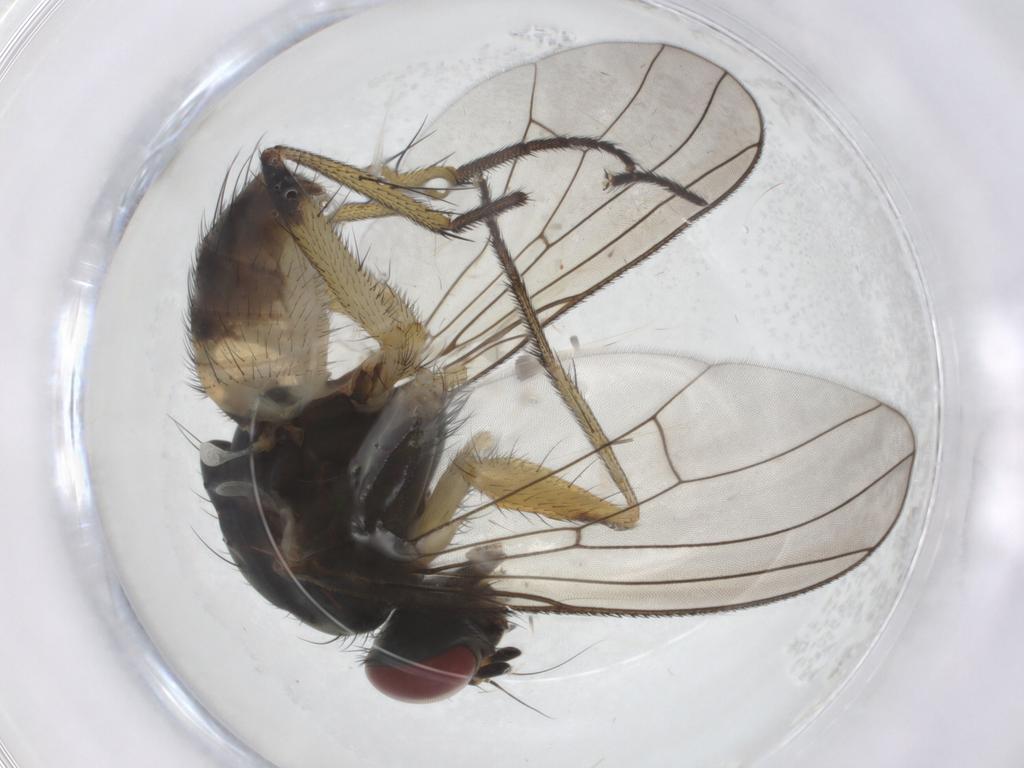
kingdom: Animalia
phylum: Arthropoda
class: Insecta
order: Diptera
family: Muscidae
